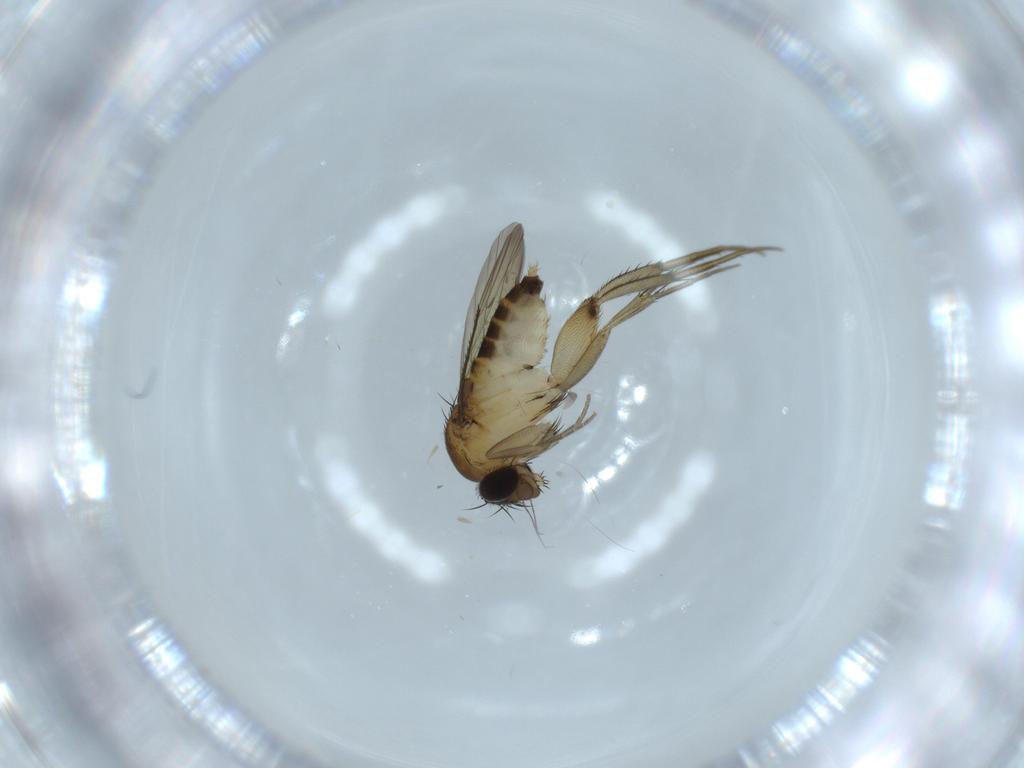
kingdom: Animalia
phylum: Arthropoda
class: Insecta
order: Diptera
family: Phoridae
